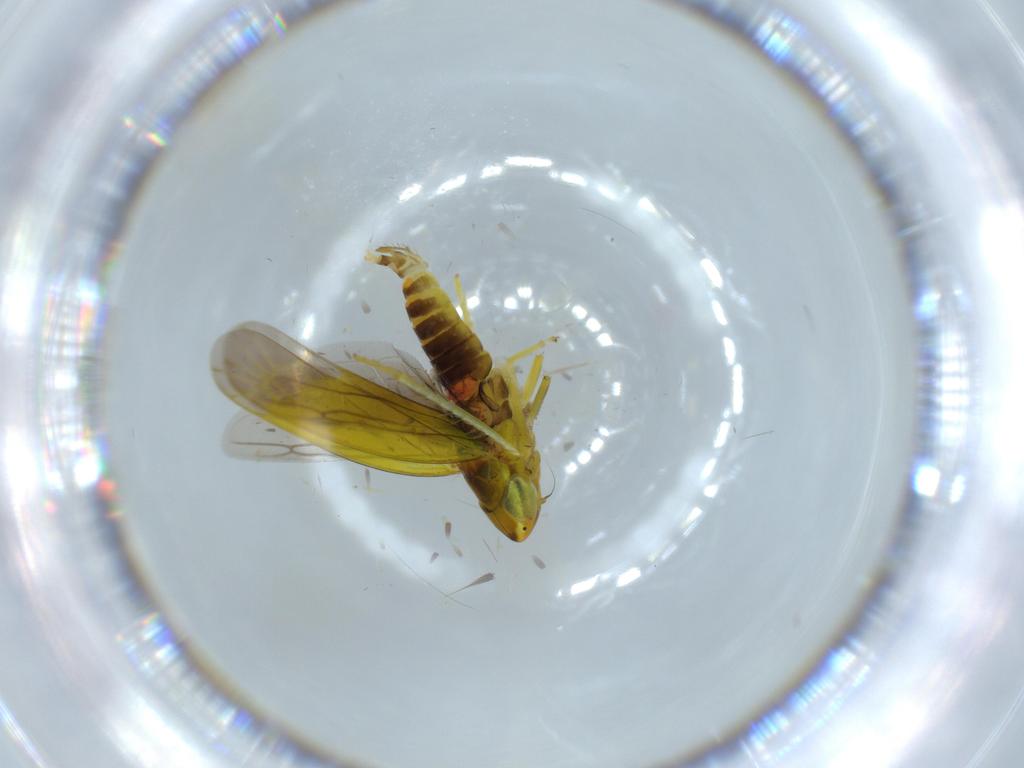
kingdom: Animalia
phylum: Arthropoda
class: Insecta
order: Hemiptera
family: Cicadellidae
